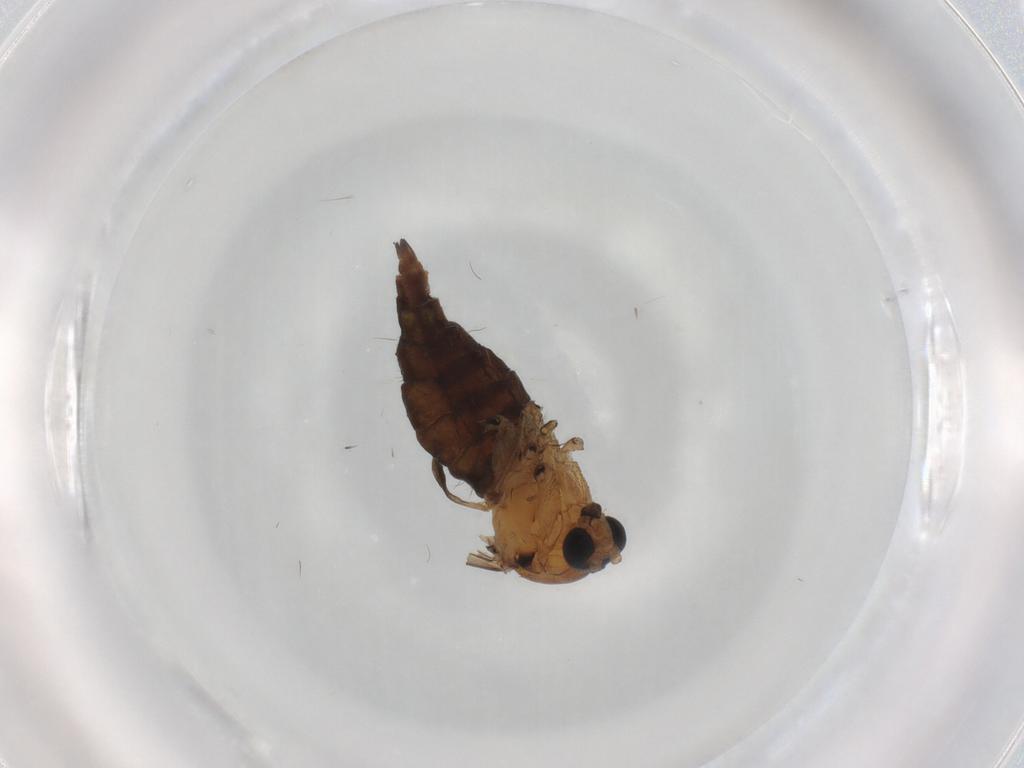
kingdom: Animalia
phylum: Arthropoda
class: Insecta
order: Diptera
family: Sciaridae
